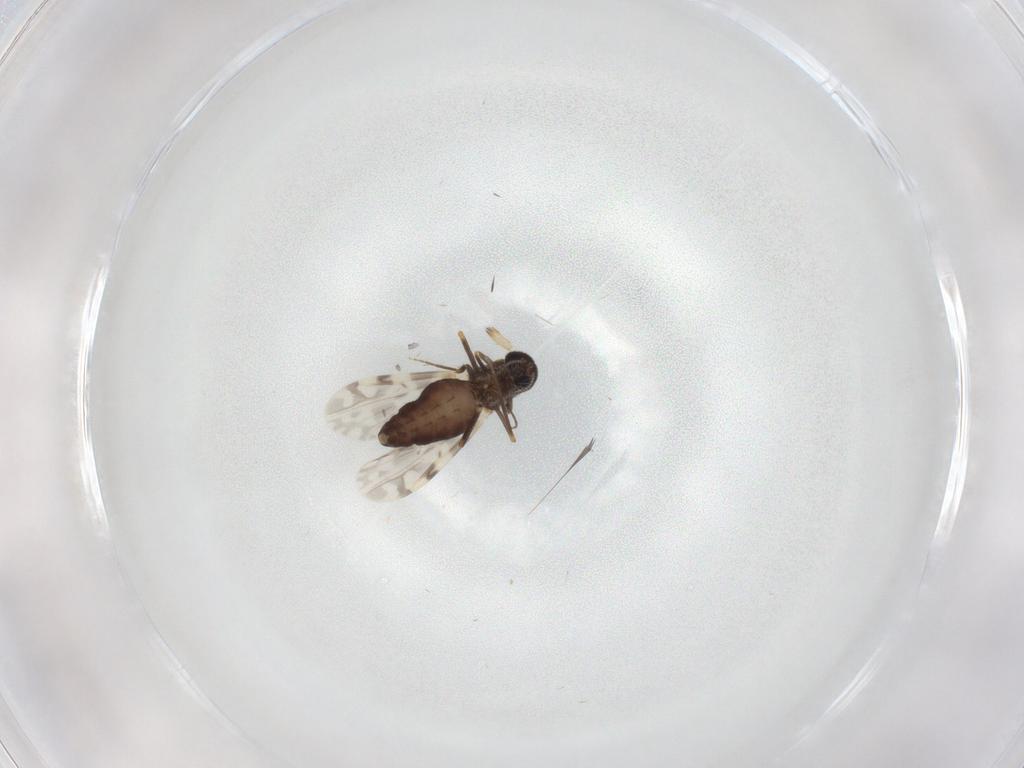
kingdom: Animalia
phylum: Arthropoda
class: Insecta
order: Diptera
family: Ceratopogonidae
